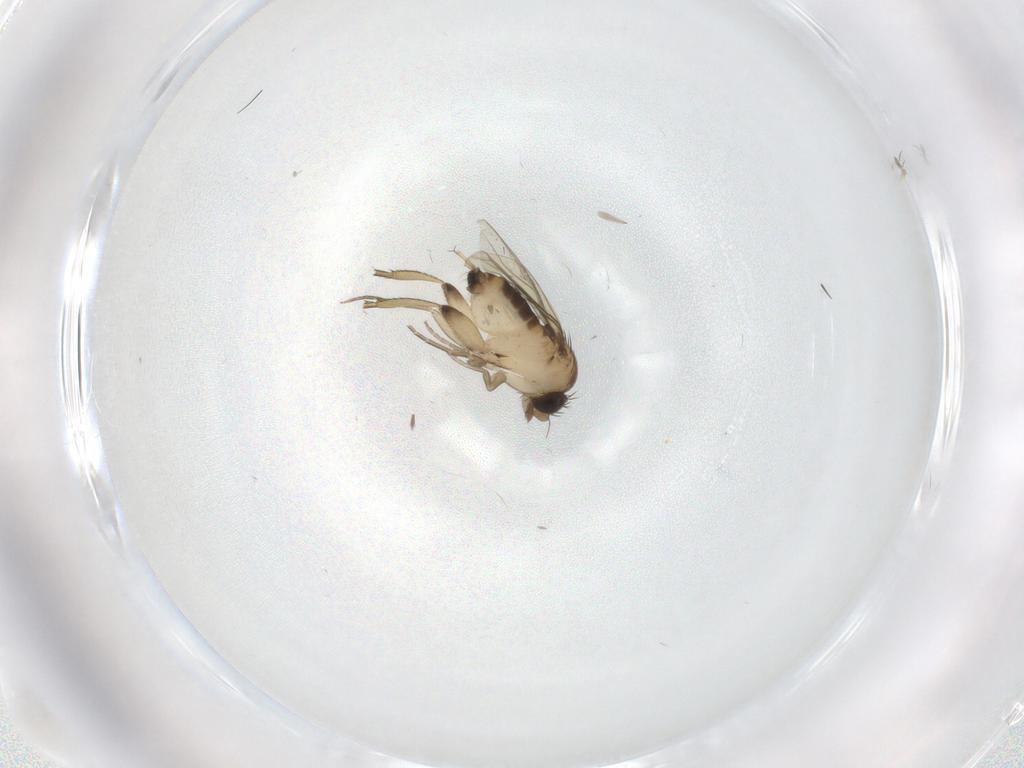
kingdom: Animalia
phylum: Arthropoda
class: Insecta
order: Diptera
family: Phoridae
